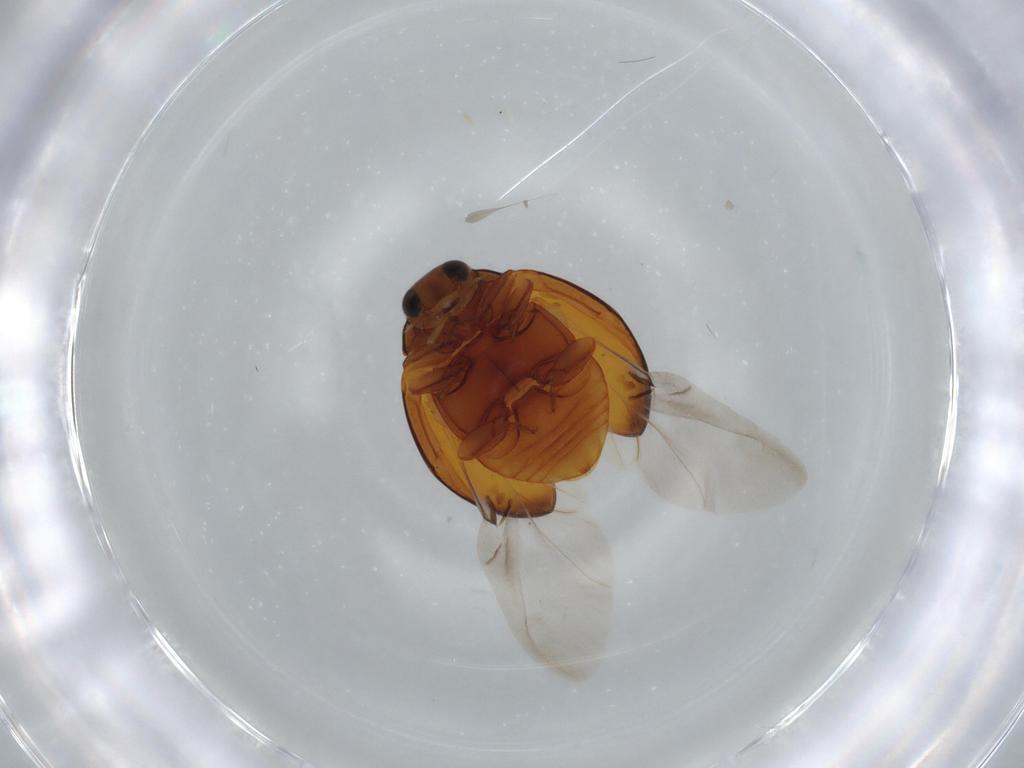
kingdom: Animalia
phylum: Arthropoda
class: Insecta
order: Coleoptera
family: Coccinellidae
